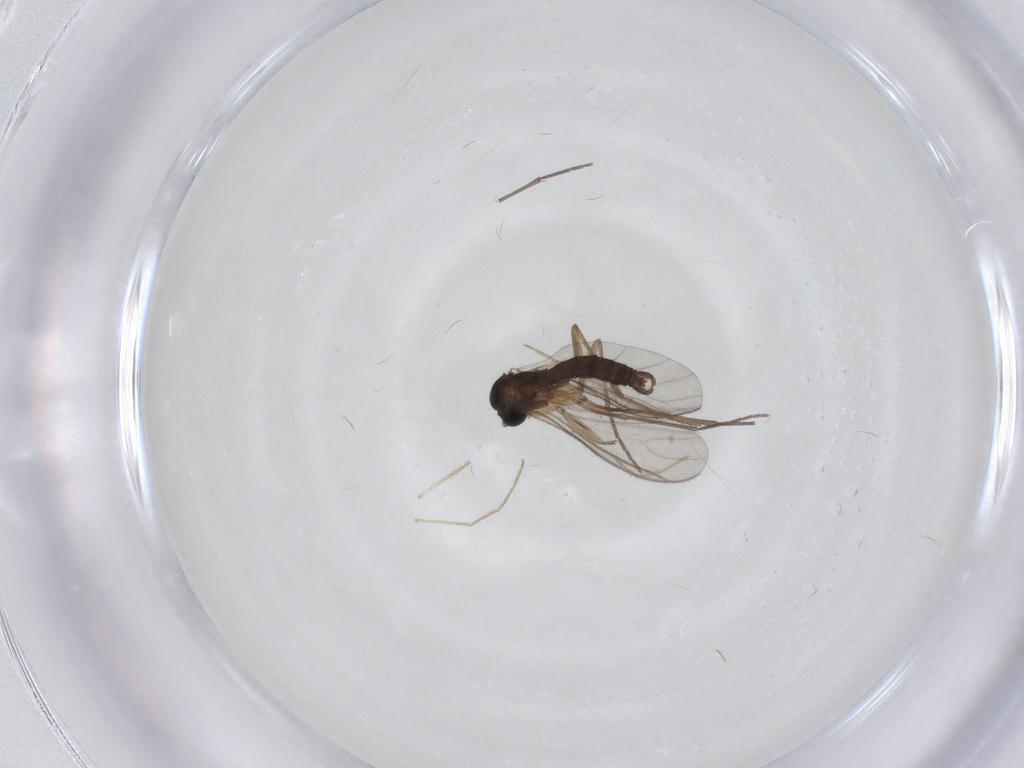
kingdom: Animalia
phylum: Arthropoda
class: Insecta
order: Diptera
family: Sciaridae
